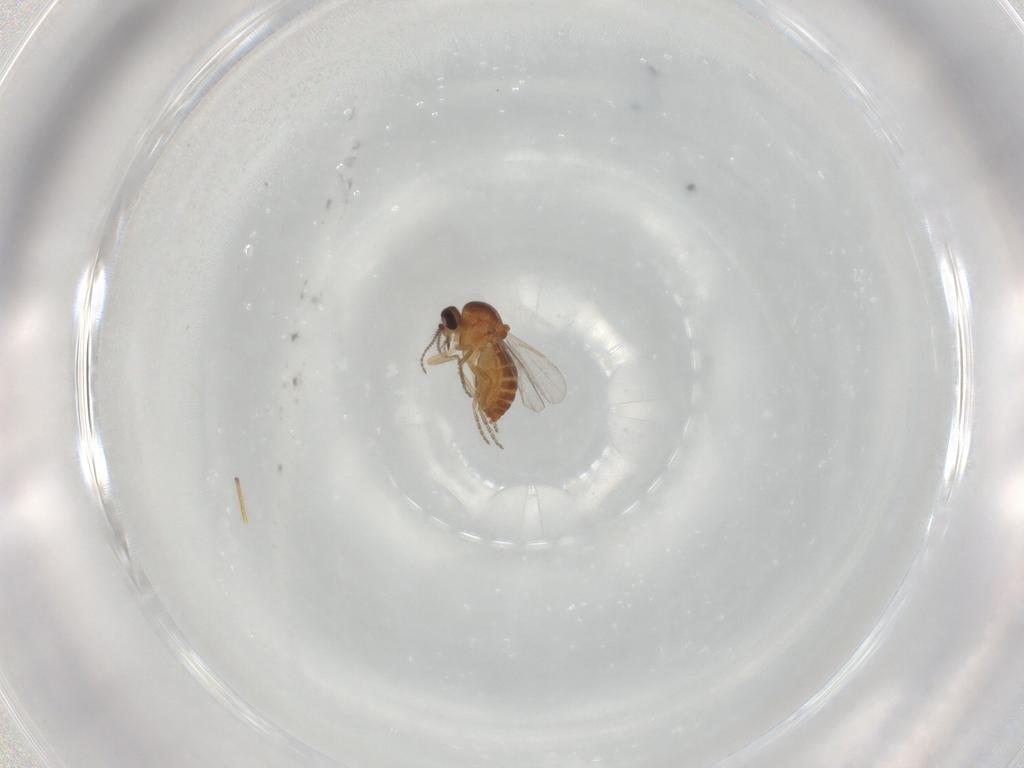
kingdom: Animalia
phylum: Arthropoda
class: Insecta
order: Diptera
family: Ceratopogonidae
